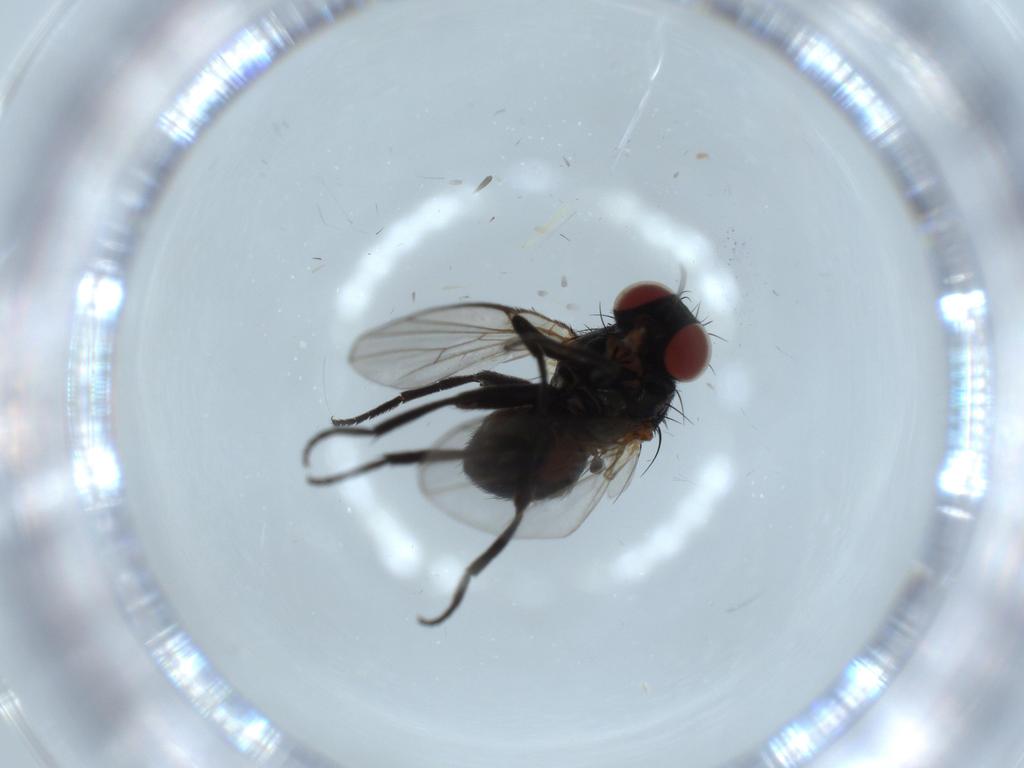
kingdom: Animalia
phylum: Arthropoda
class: Insecta
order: Diptera
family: Agromyzidae
